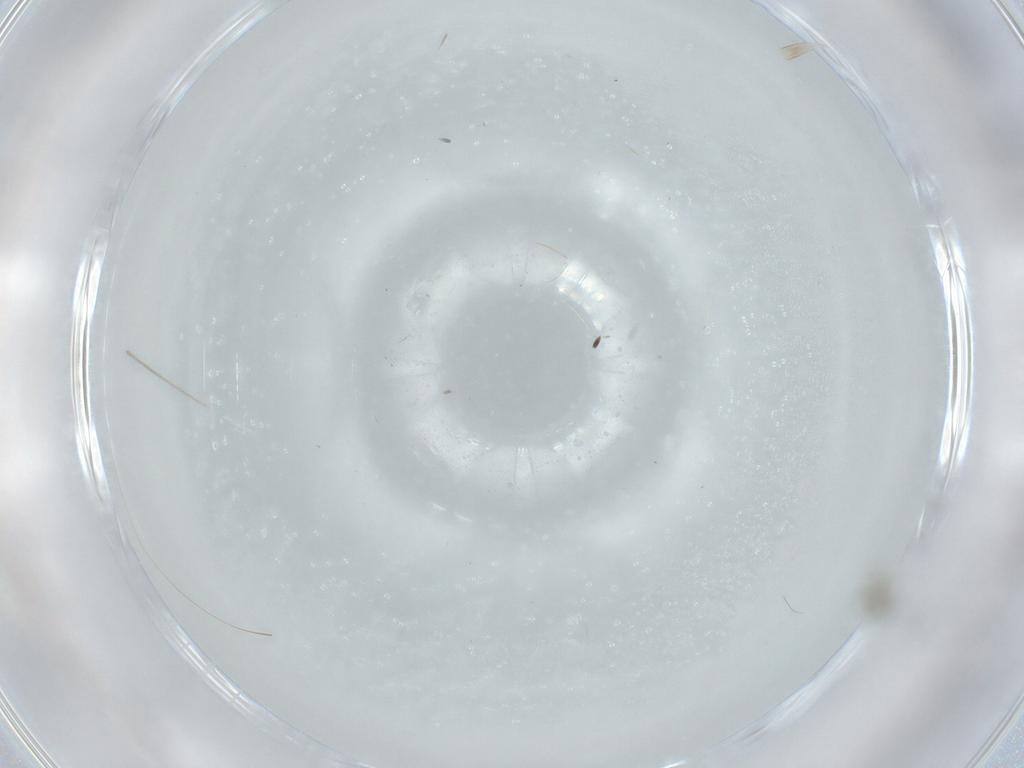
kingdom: Animalia
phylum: Arthropoda
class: Insecta
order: Diptera
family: Cecidomyiidae
